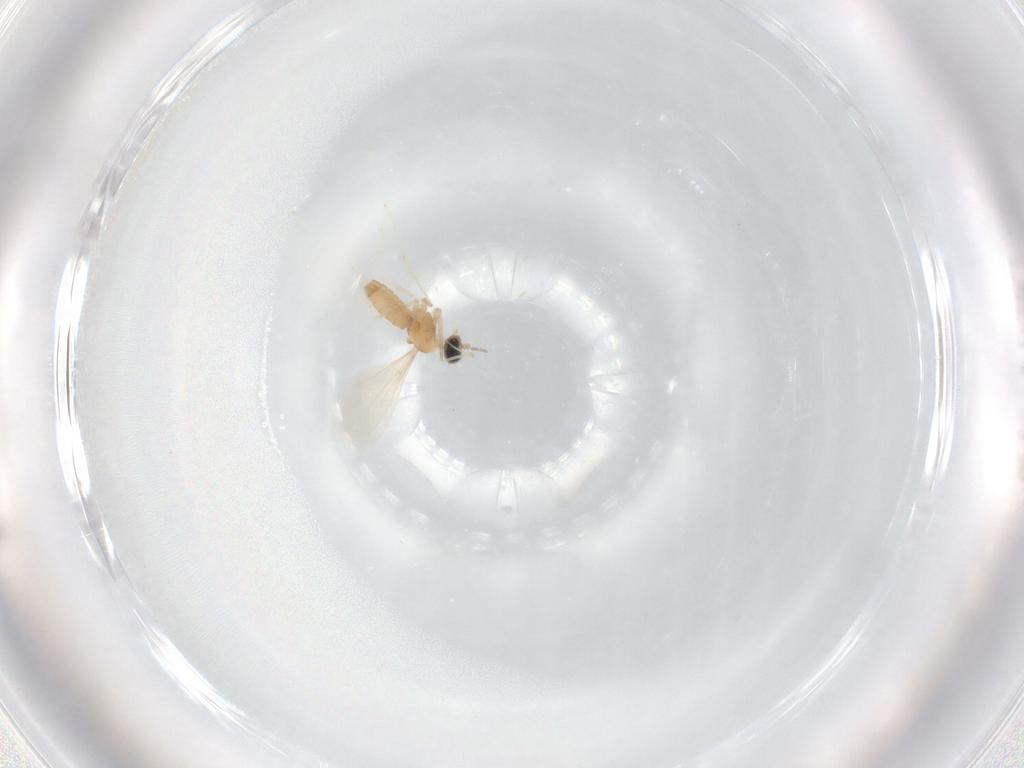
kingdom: Animalia
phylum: Arthropoda
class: Insecta
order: Diptera
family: Cecidomyiidae
